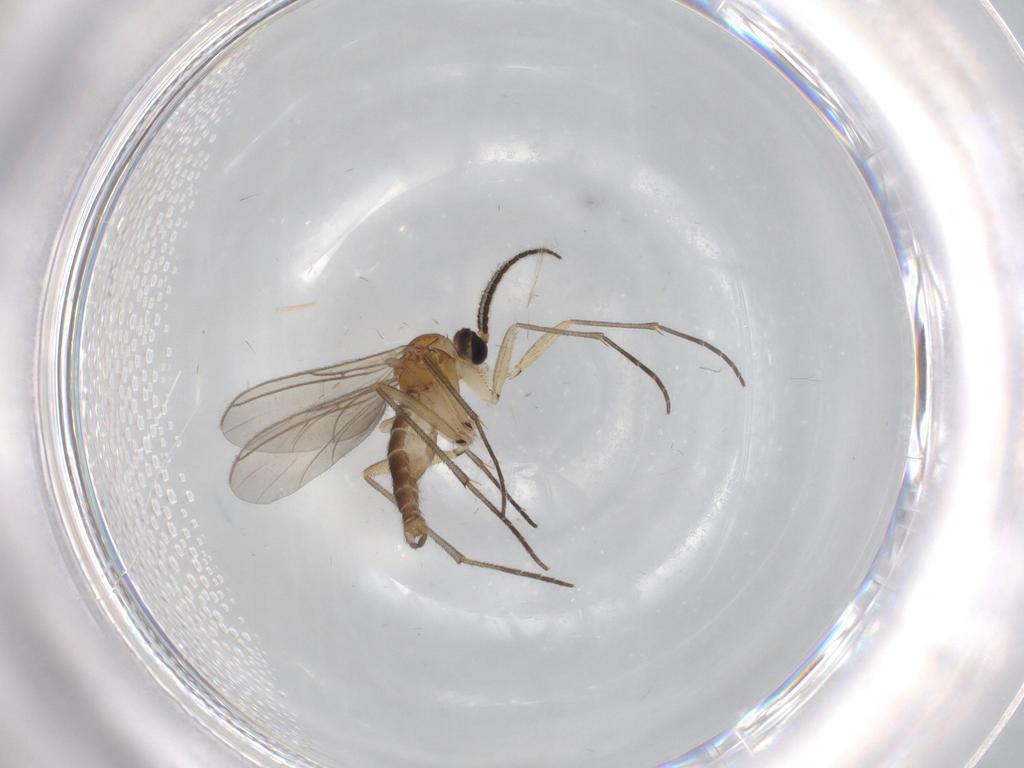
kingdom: Animalia
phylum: Arthropoda
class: Insecta
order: Diptera
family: Sciaridae
